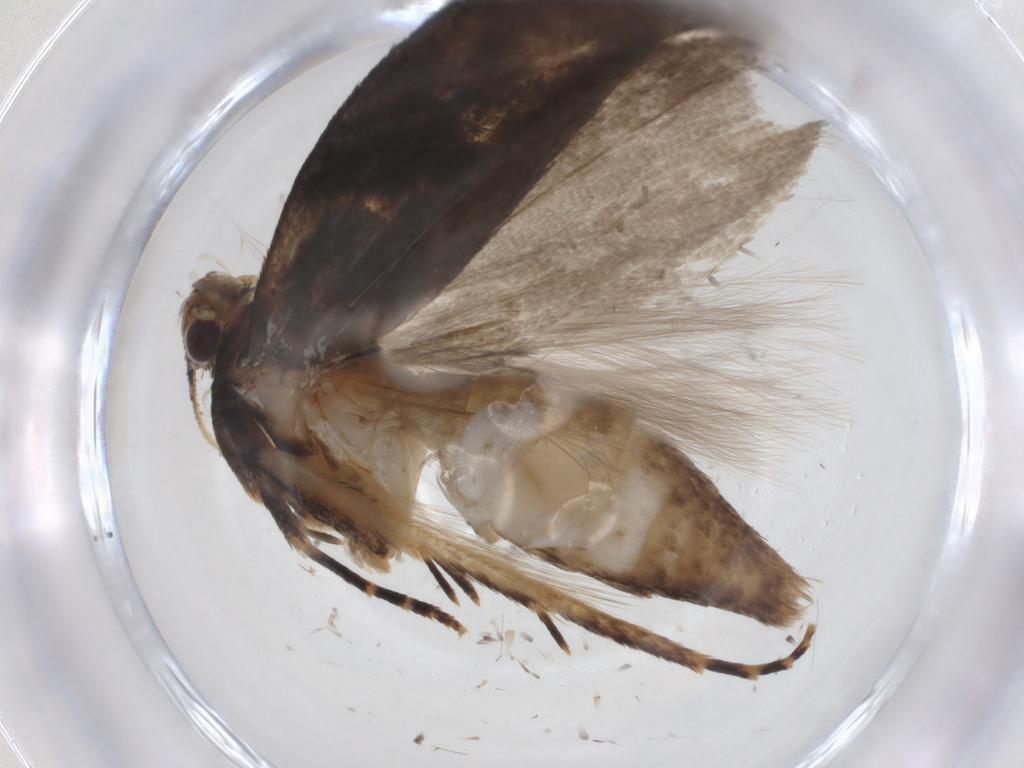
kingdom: Animalia
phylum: Arthropoda
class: Insecta
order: Lepidoptera
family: Gelechiidae
